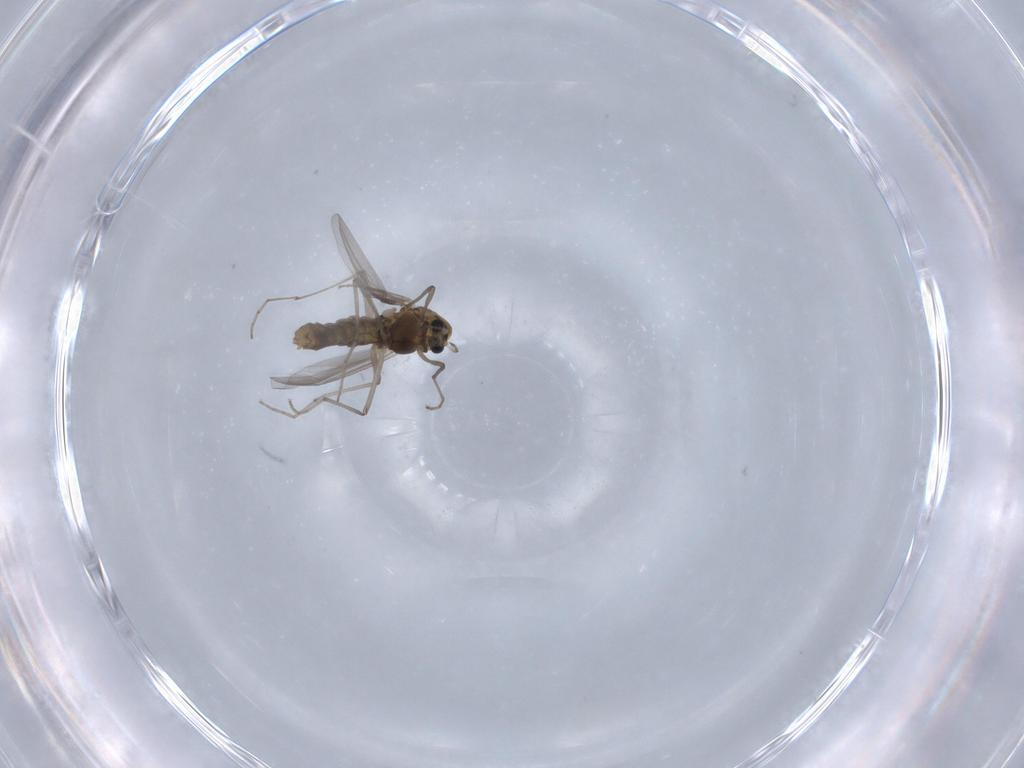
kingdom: Animalia
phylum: Arthropoda
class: Insecta
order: Diptera
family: Chironomidae
